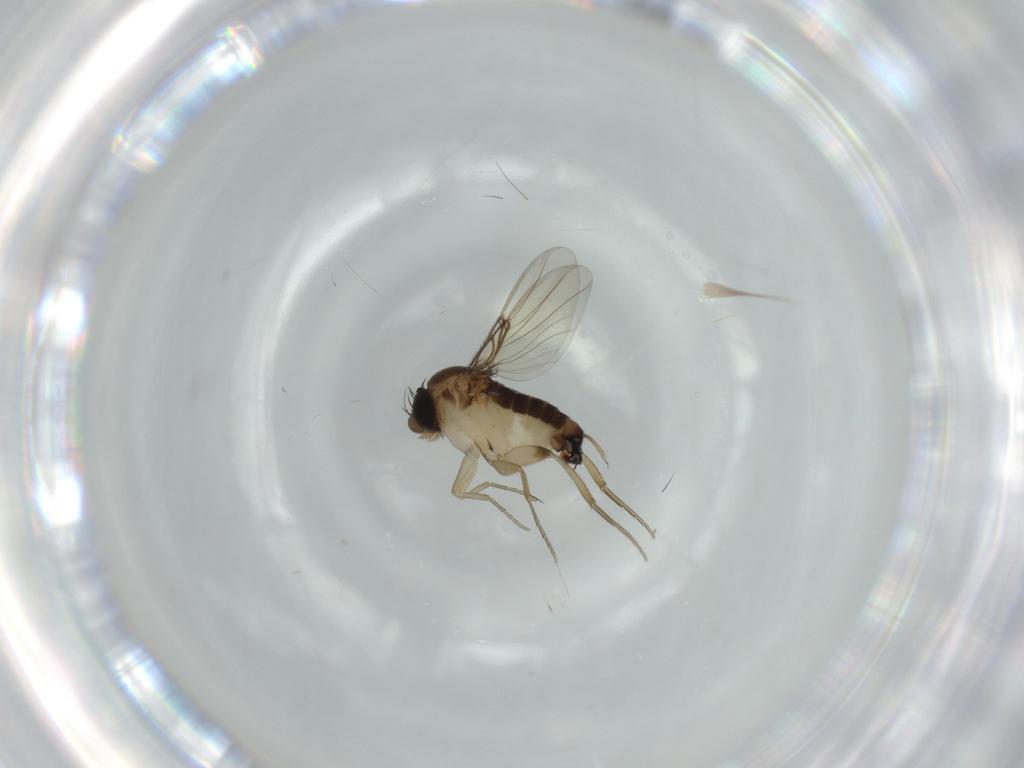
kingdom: Animalia
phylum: Arthropoda
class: Insecta
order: Diptera
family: Phoridae
